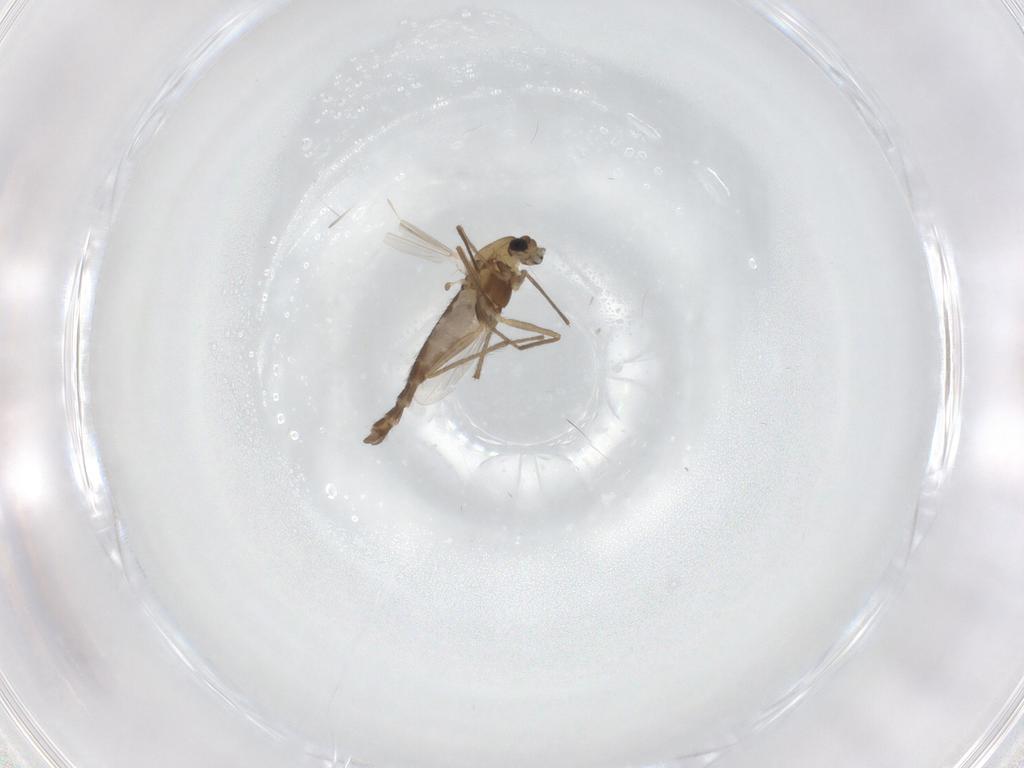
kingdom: Animalia
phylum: Arthropoda
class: Insecta
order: Diptera
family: Chironomidae
